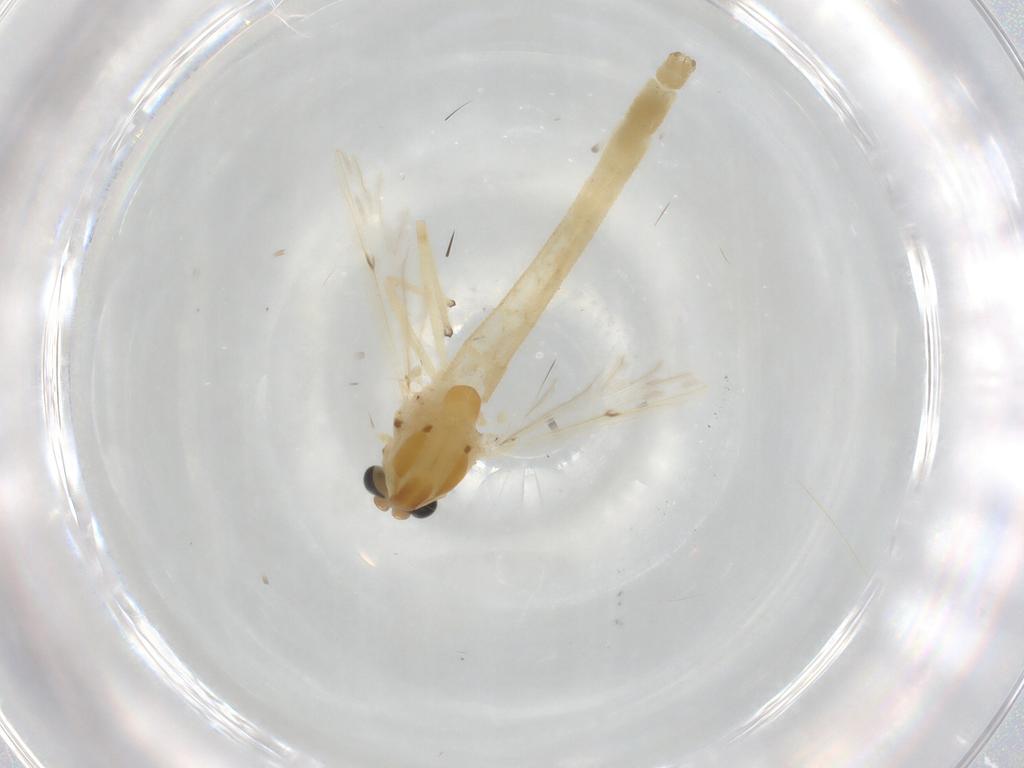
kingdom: Animalia
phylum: Arthropoda
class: Insecta
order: Diptera
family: Chironomidae
